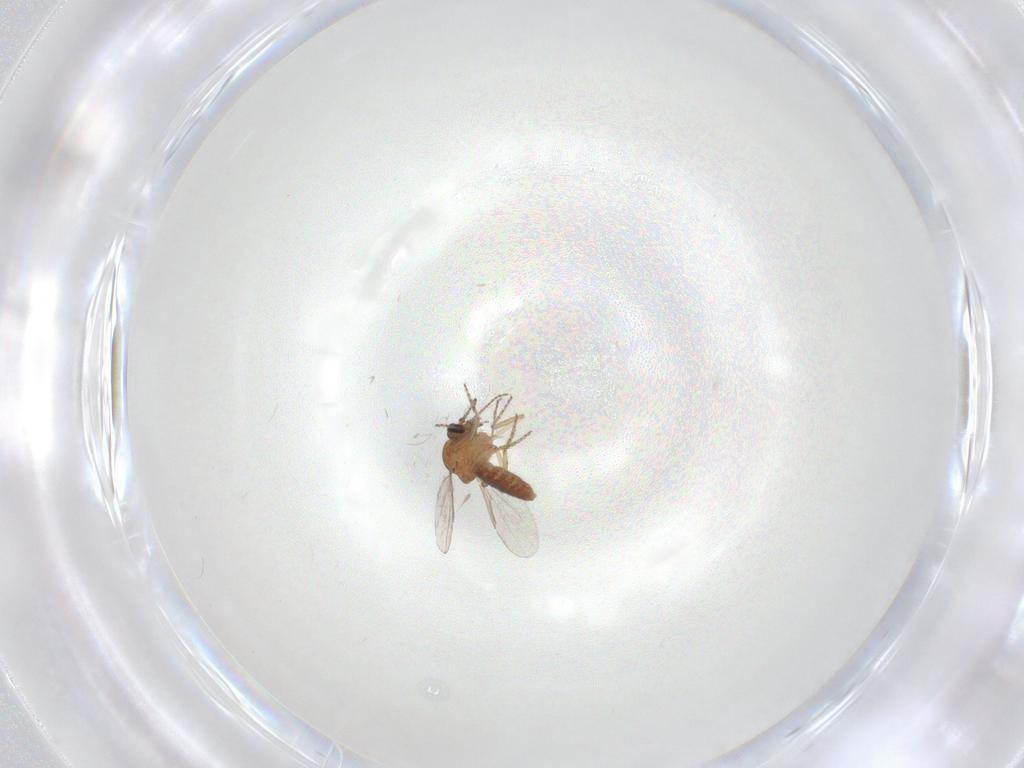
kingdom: Animalia
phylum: Arthropoda
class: Insecta
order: Diptera
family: Ceratopogonidae
